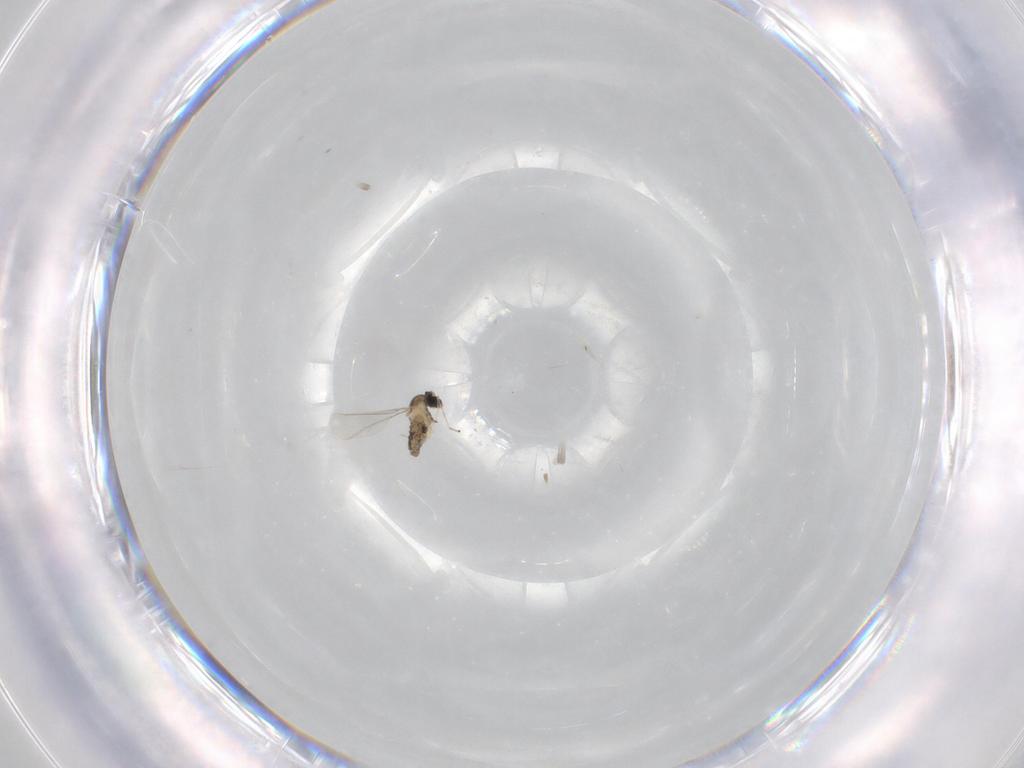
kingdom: Animalia
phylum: Arthropoda
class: Insecta
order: Diptera
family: Cecidomyiidae
